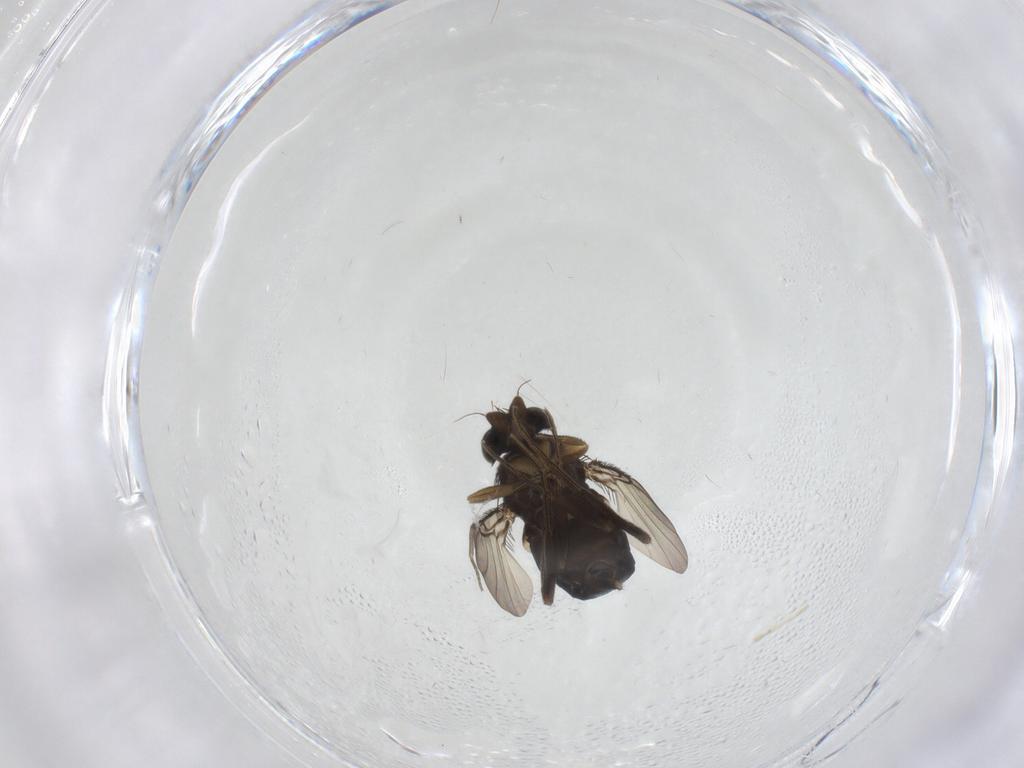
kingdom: Animalia
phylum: Arthropoda
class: Insecta
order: Diptera
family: Phoridae
